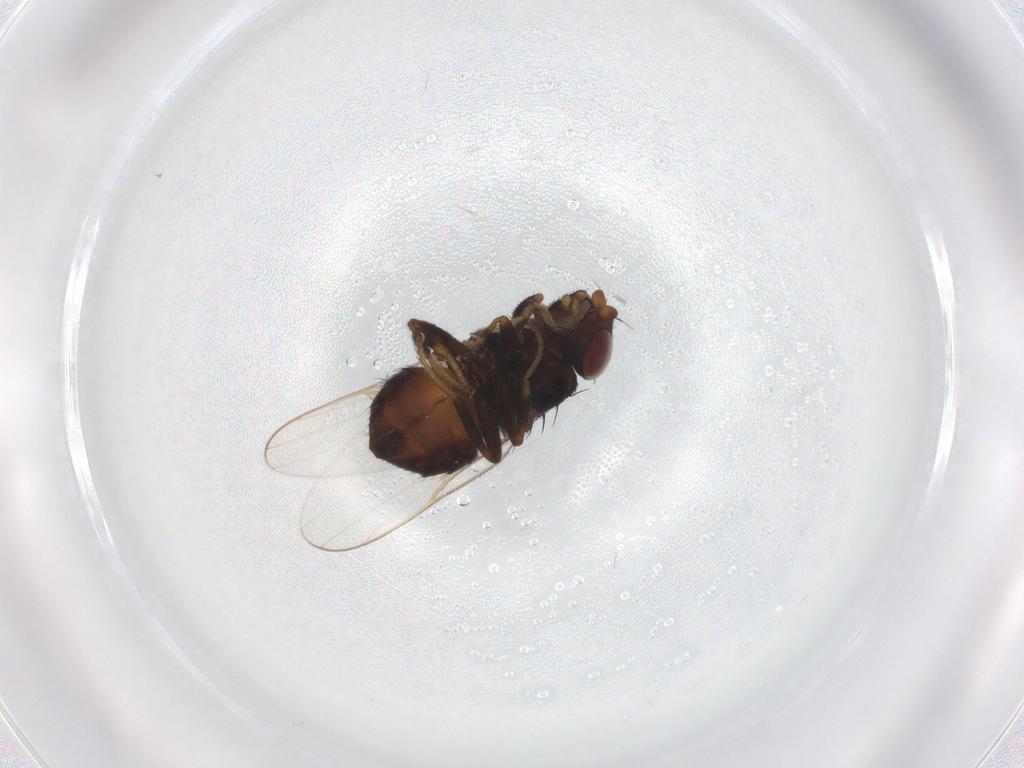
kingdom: Animalia
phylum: Arthropoda
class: Insecta
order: Diptera
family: Chloropidae
